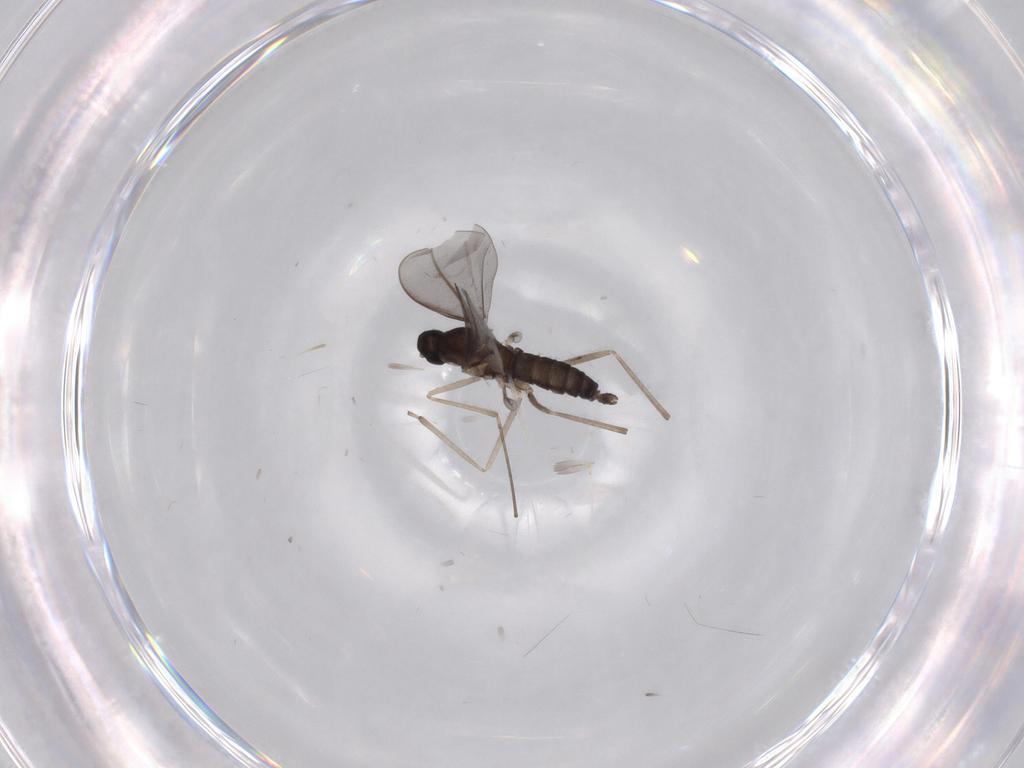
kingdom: Animalia
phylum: Arthropoda
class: Insecta
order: Diptera
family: Cecidomyiidae
